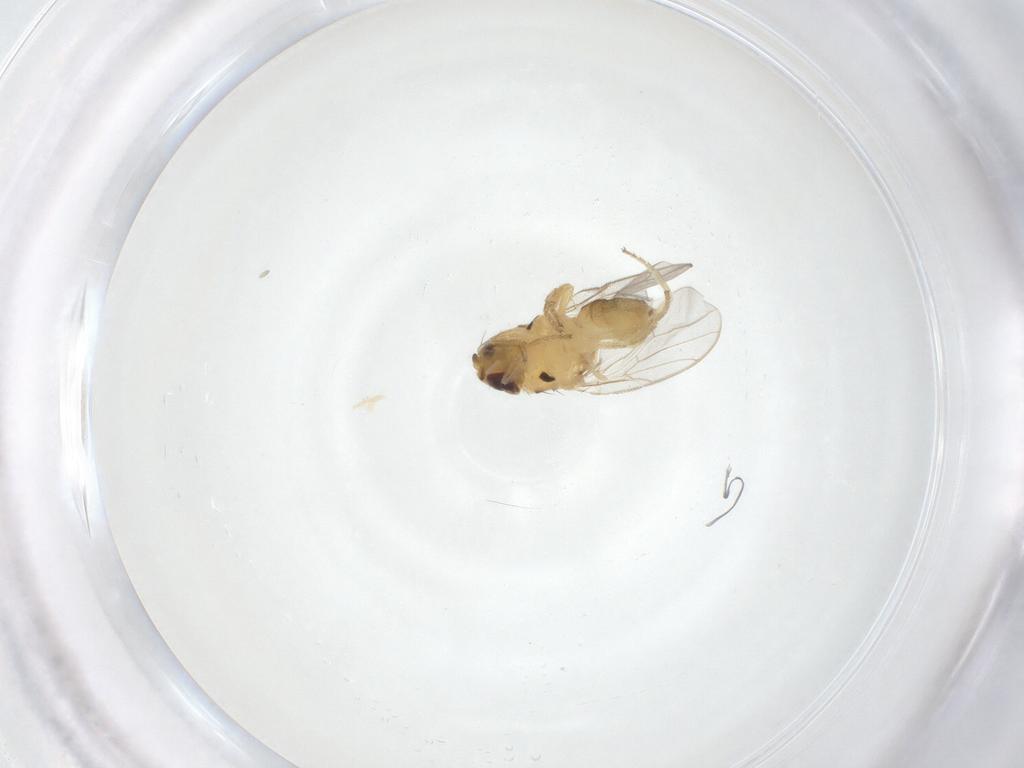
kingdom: Animalia
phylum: Arthropoda
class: Insecta
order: Diptera
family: Chloropidae
